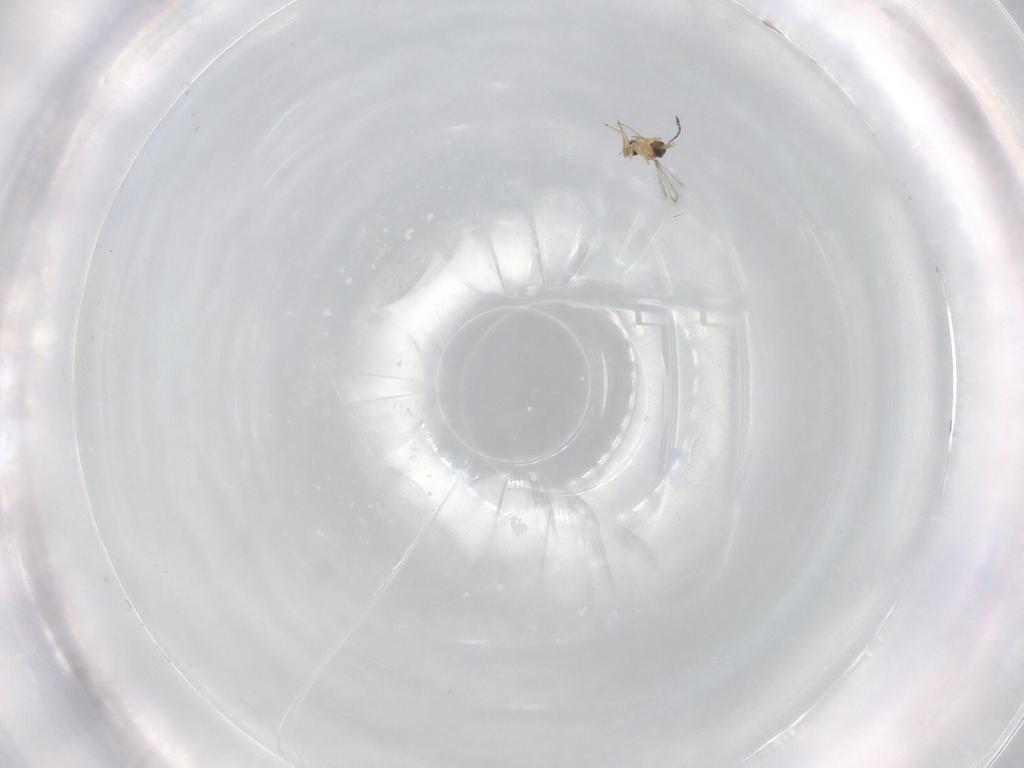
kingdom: Animalia
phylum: Arthropoda
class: Insecta
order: Hymenoptera
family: Mymaridae
